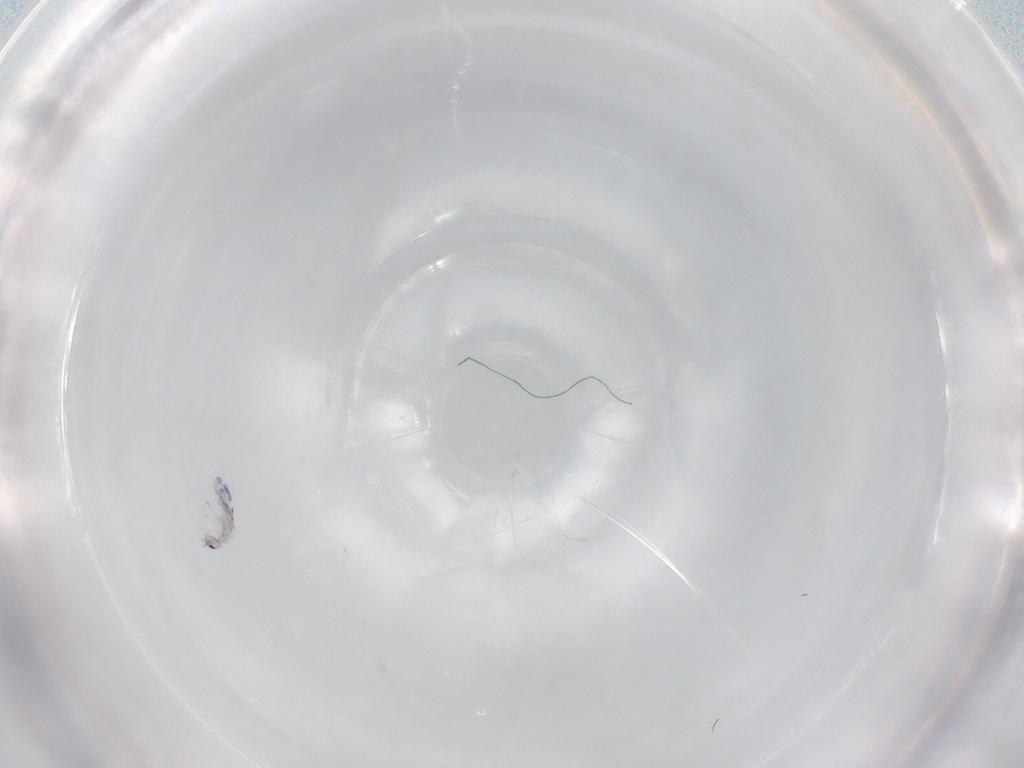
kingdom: Animalia
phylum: Arthropoda
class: Collembola
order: Entomobryomorpha
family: Entomobryidae
